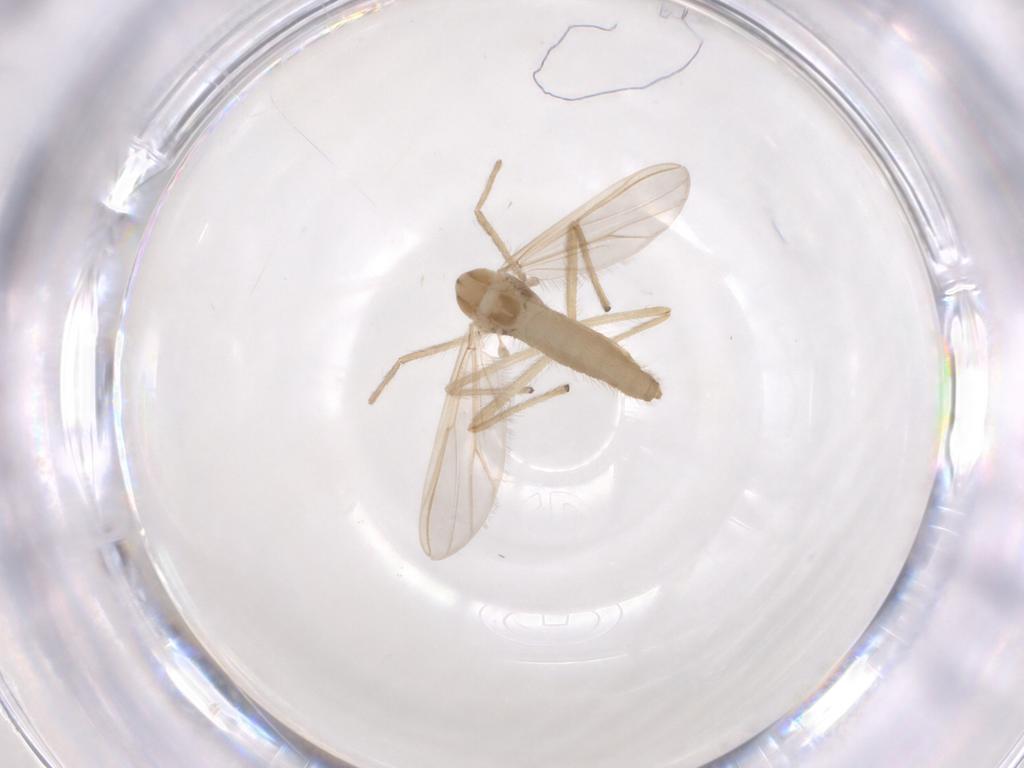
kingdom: Animalia
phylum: Arthropoda
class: Insecta
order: Diptera
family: Chironomidae
